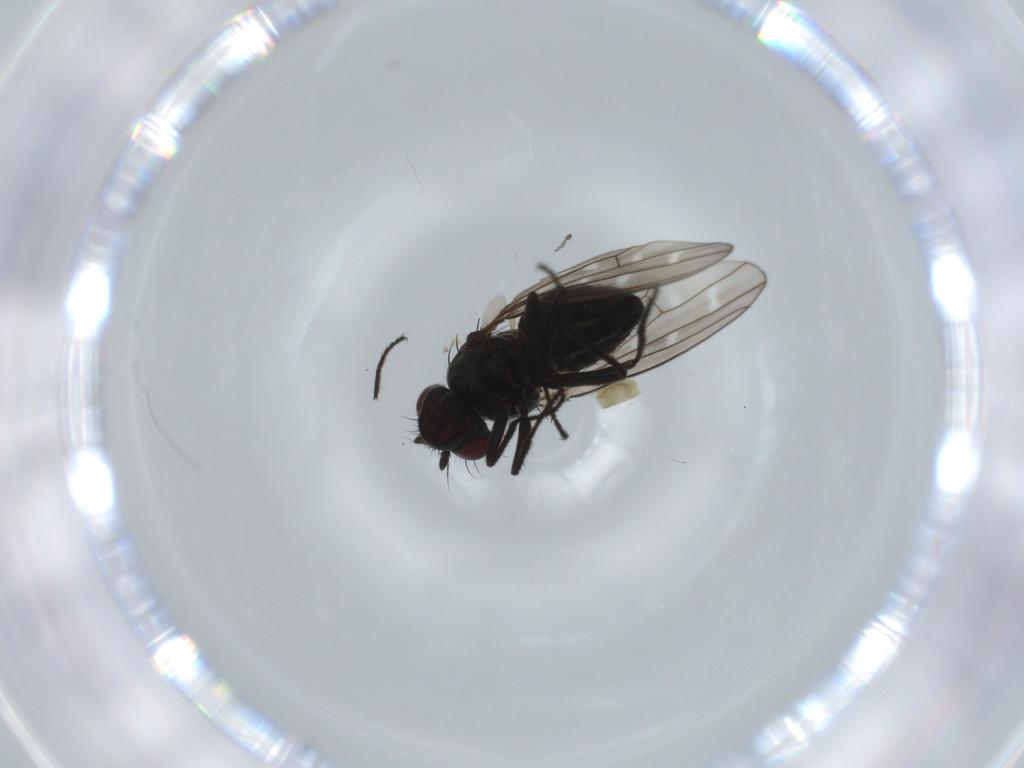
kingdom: Animalia
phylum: Arthropoda
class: Insecta
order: Diptera
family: Ephydridae
